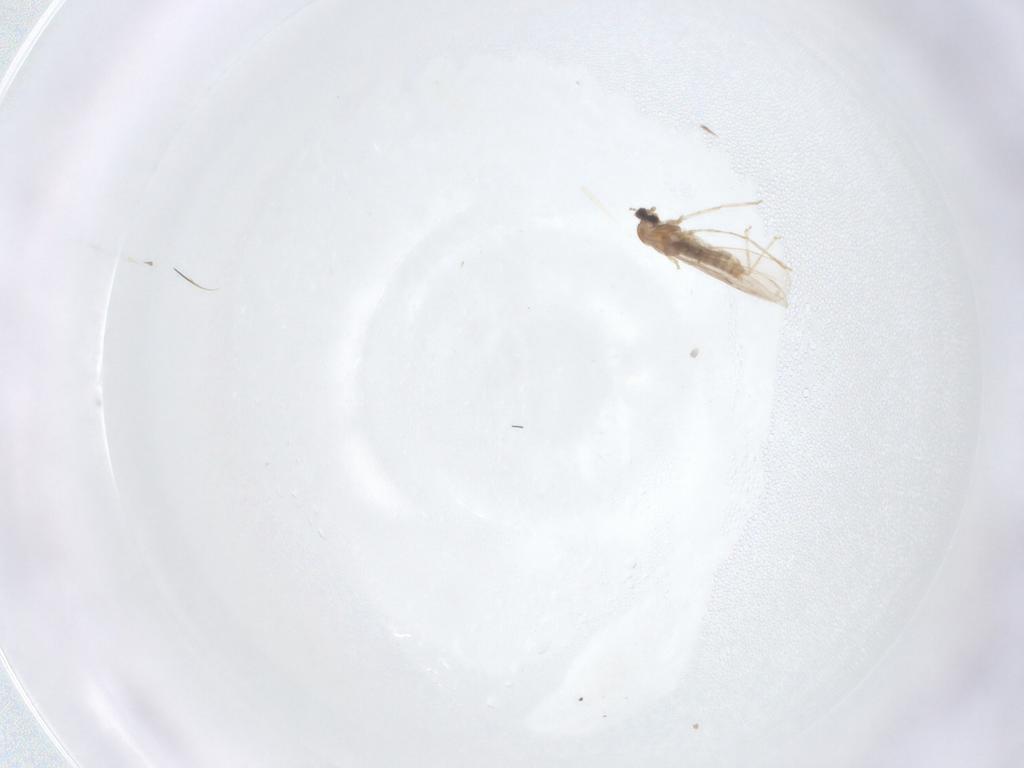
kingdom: Animalia
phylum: Arthropoda
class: Insecta
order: Diptera
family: Cecidomyiidae
